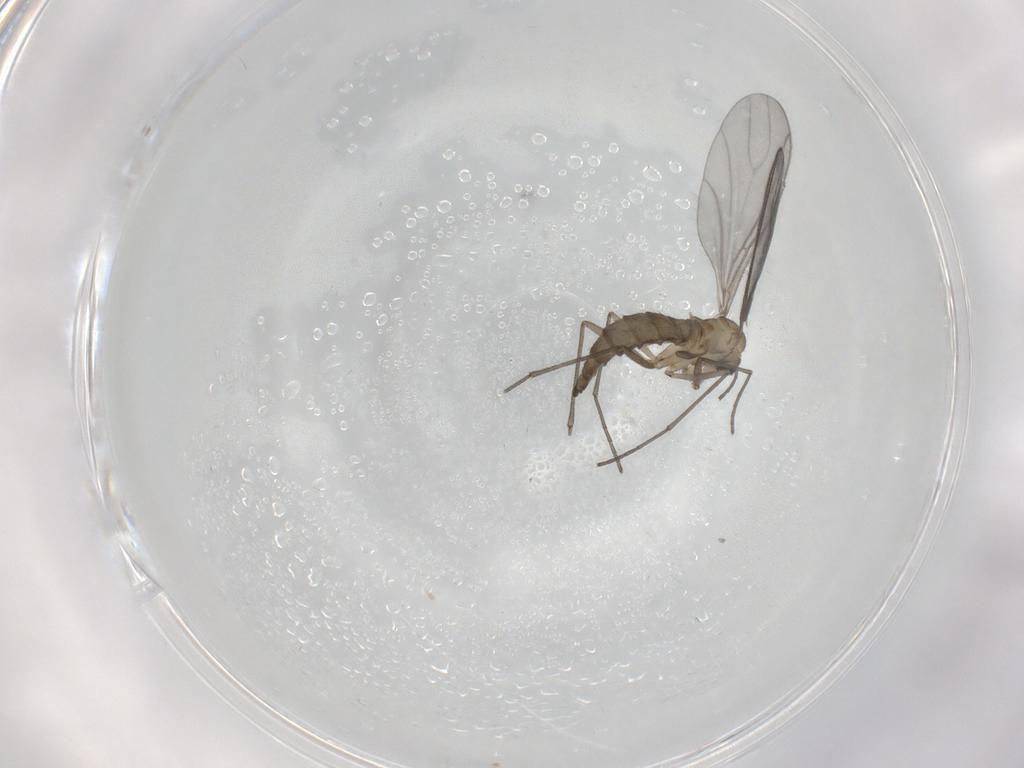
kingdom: Animalia
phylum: Arthropoda
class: Insecta
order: Diptera
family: Sciaridae
